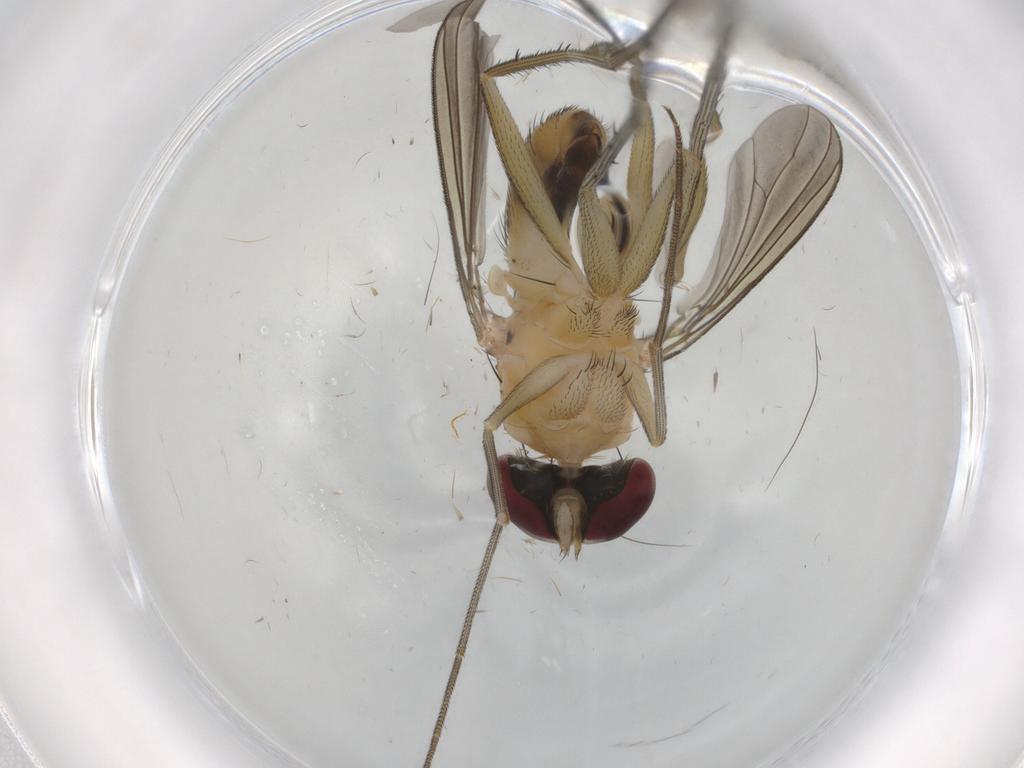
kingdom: Animalia
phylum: Arthropoda
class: Insecta
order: Diptera
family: Dolichopodidae
